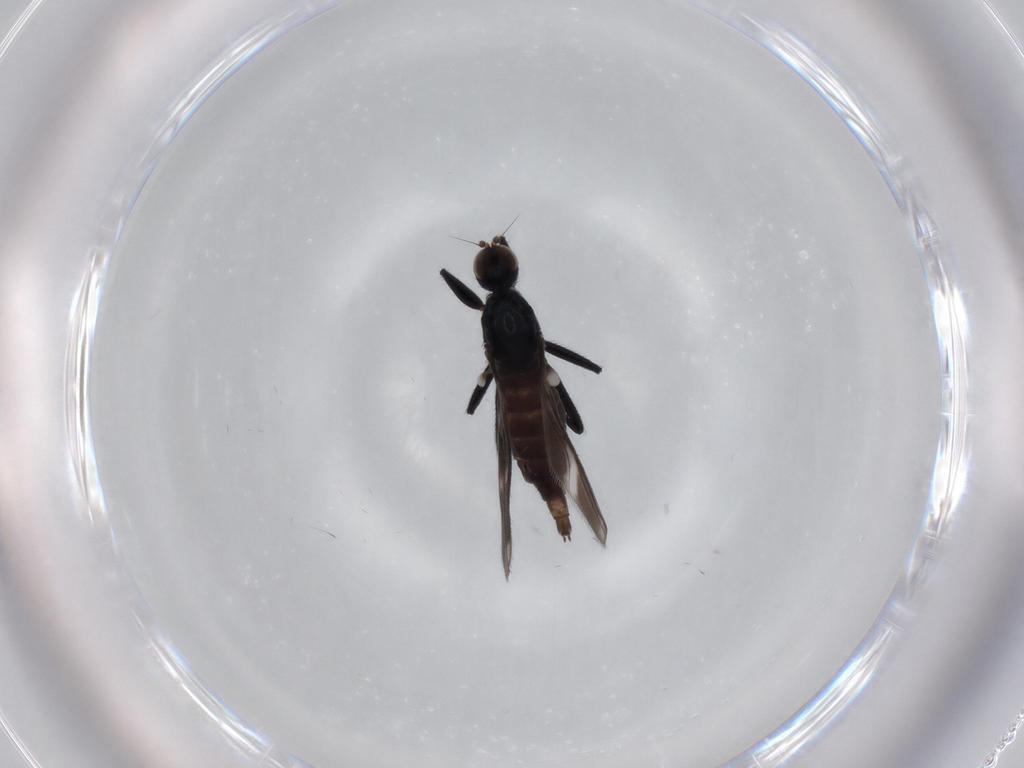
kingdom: Animalia
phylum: Arthropoda
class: Insecta
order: Diptera
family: Hybotidae
